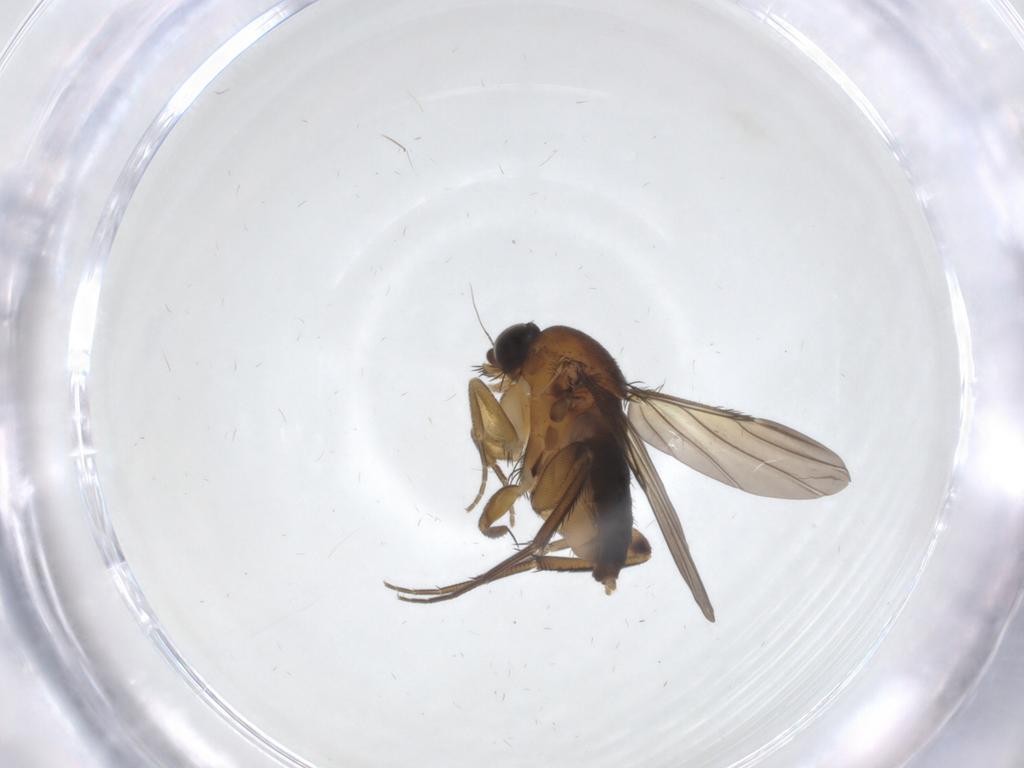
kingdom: Animalia
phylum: Arthropoda
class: Insecta
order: Diptera
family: Phoridae
